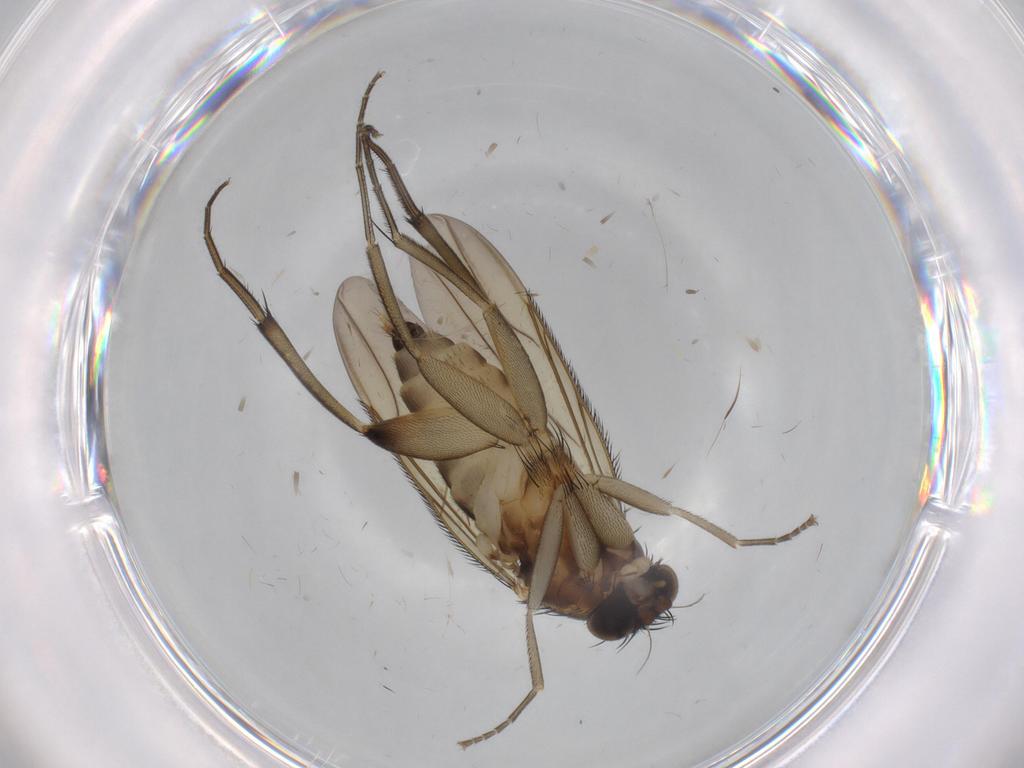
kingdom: Animalia
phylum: Arthropoda
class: Insecta
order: Diptera
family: Phoridae
